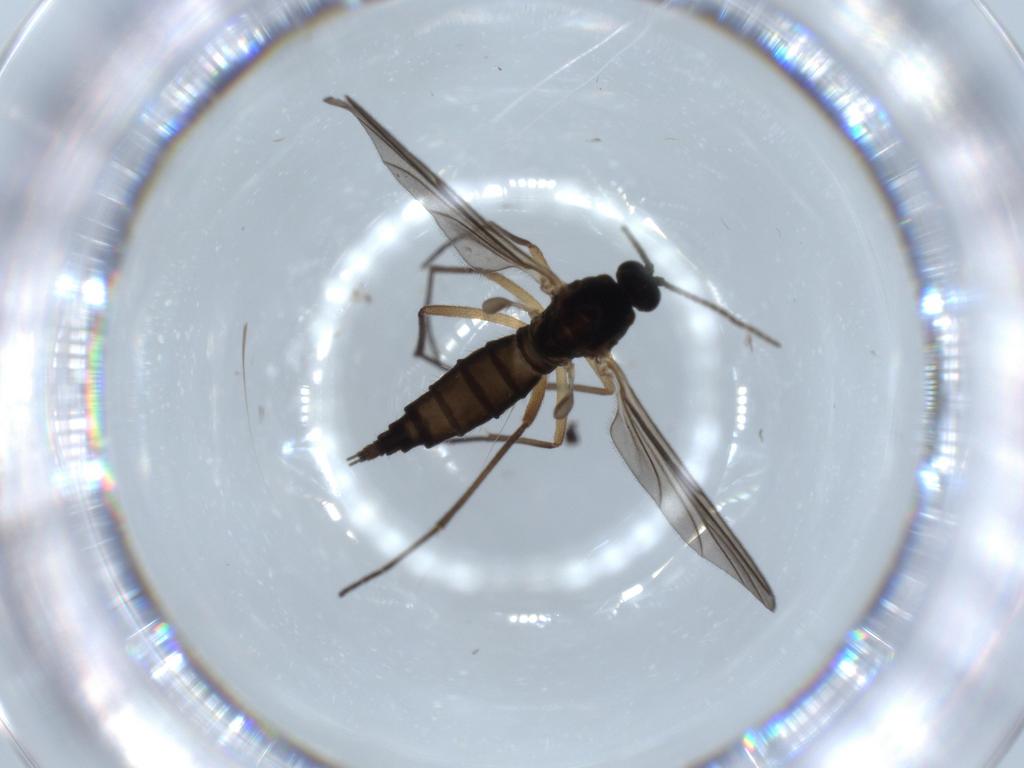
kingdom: Animalia
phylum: Arthropoda
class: Insecta
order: Diptera
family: Sciaridae
